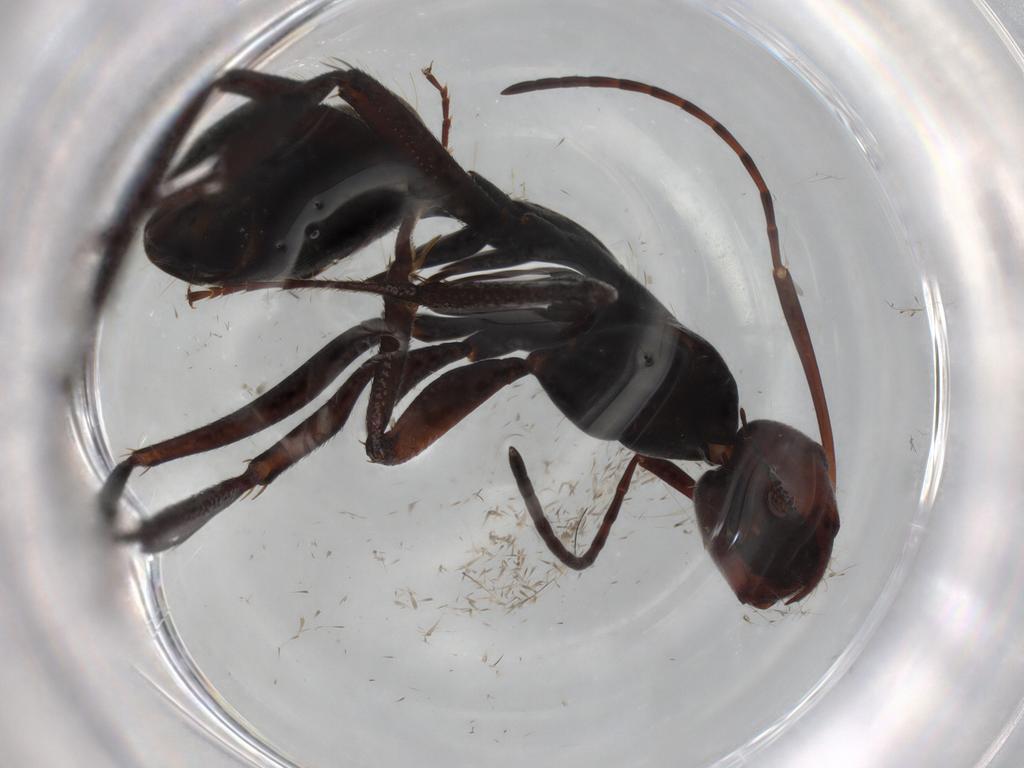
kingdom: Animalia
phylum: Arthropoda
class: Insecta
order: Hymenoptera
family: Formicidae
